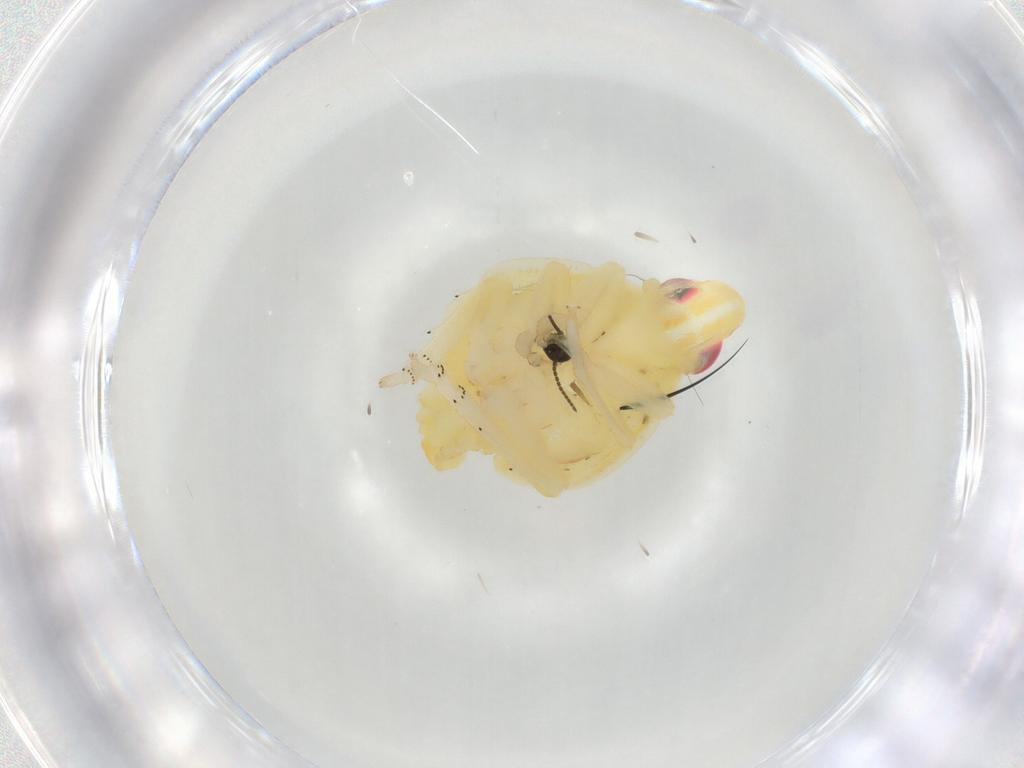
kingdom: Animalia
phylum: Arthropoda
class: Insecta
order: Hemiptera
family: Tropiduchidae
